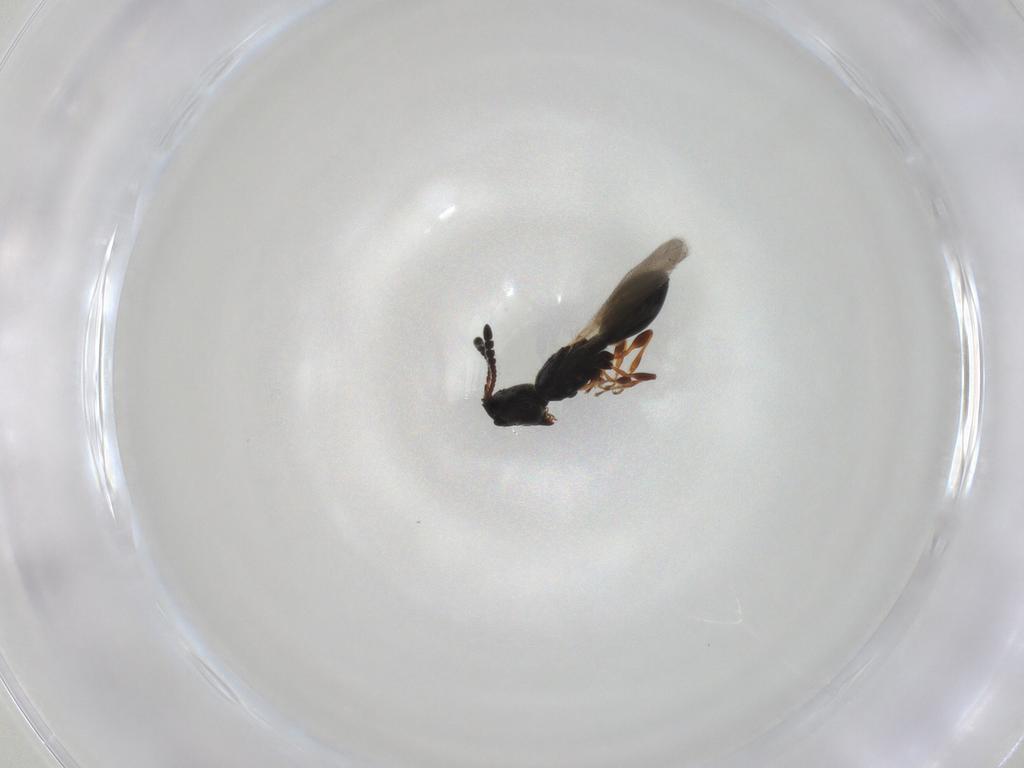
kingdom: Animalia
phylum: Arthropoda
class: Insecta
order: Hymenoptera
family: Diapriidae
